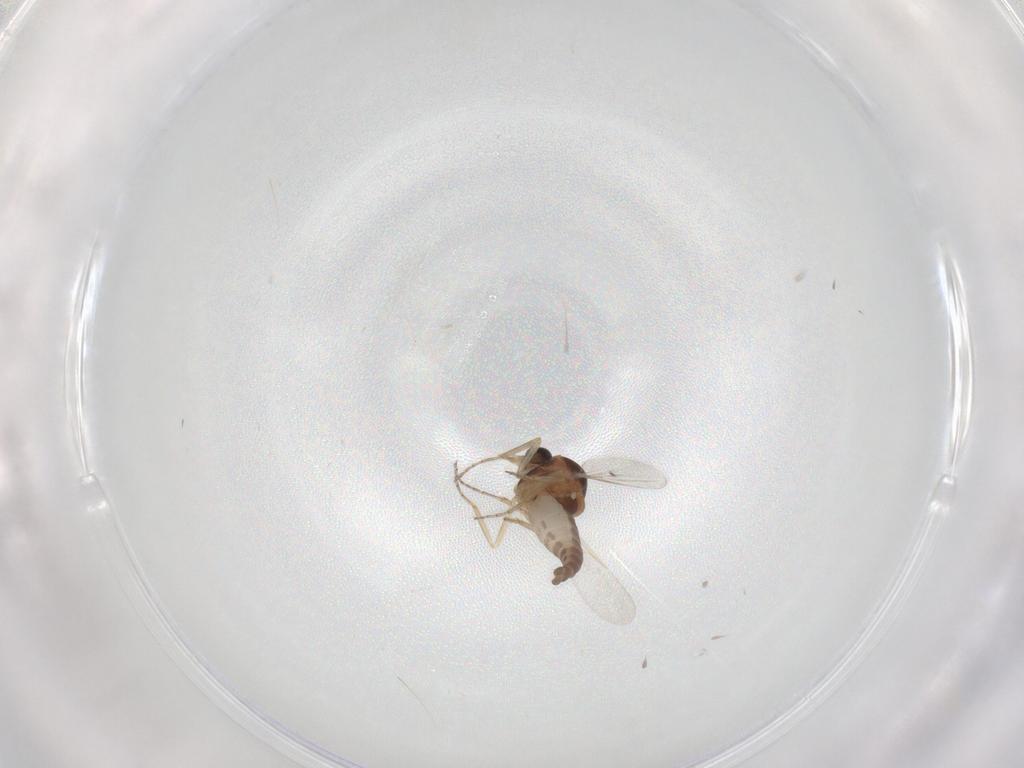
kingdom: Animalia
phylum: Arthropoda
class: Insecta
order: Diptera
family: Ceratopogonidae
